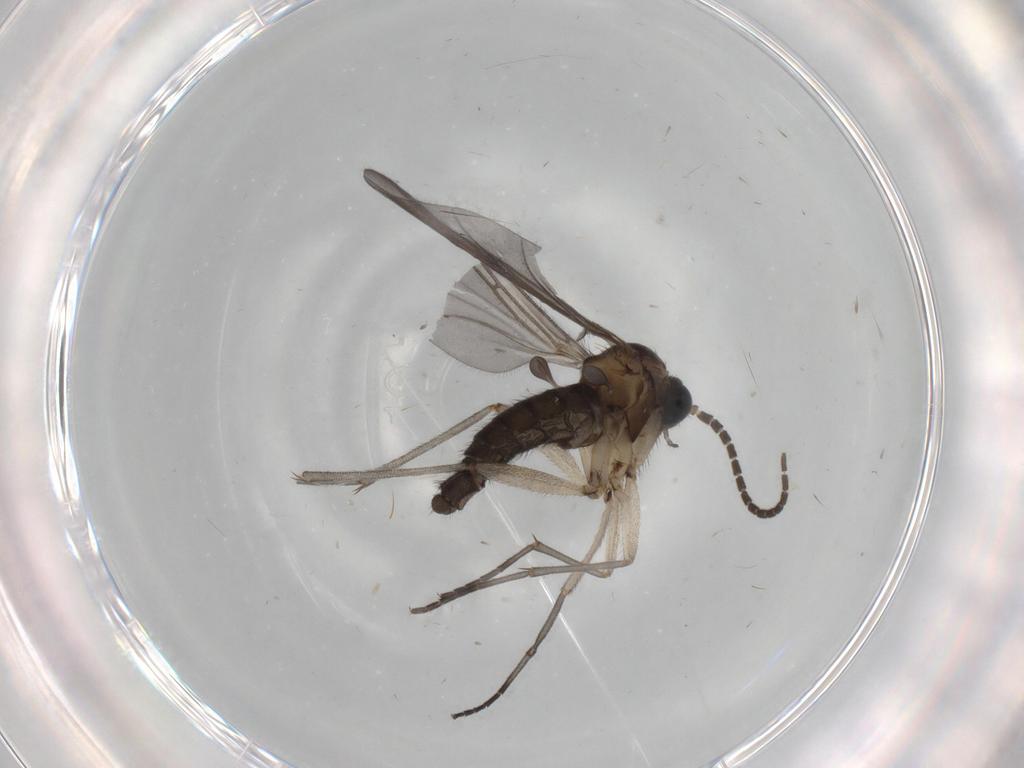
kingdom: Animalia
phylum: Arthropoda
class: Insecta
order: Diptera
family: Sciaridae
